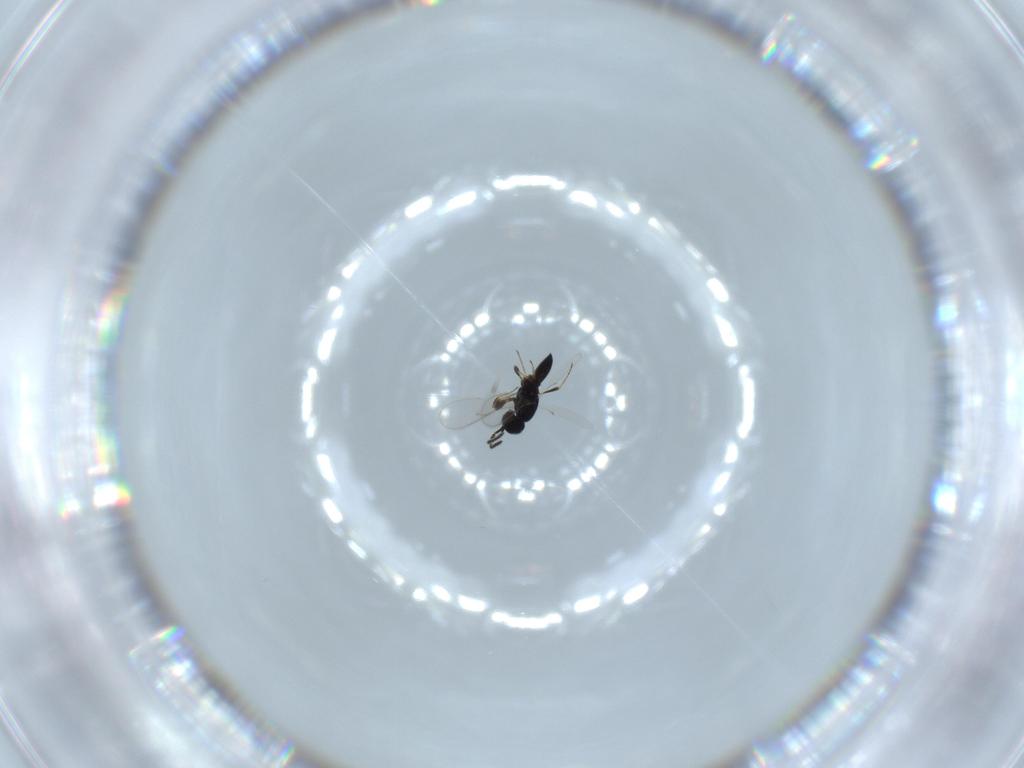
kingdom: Animalia
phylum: Arthropoda
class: Insecta
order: Hymenoptera
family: Scelionidae
